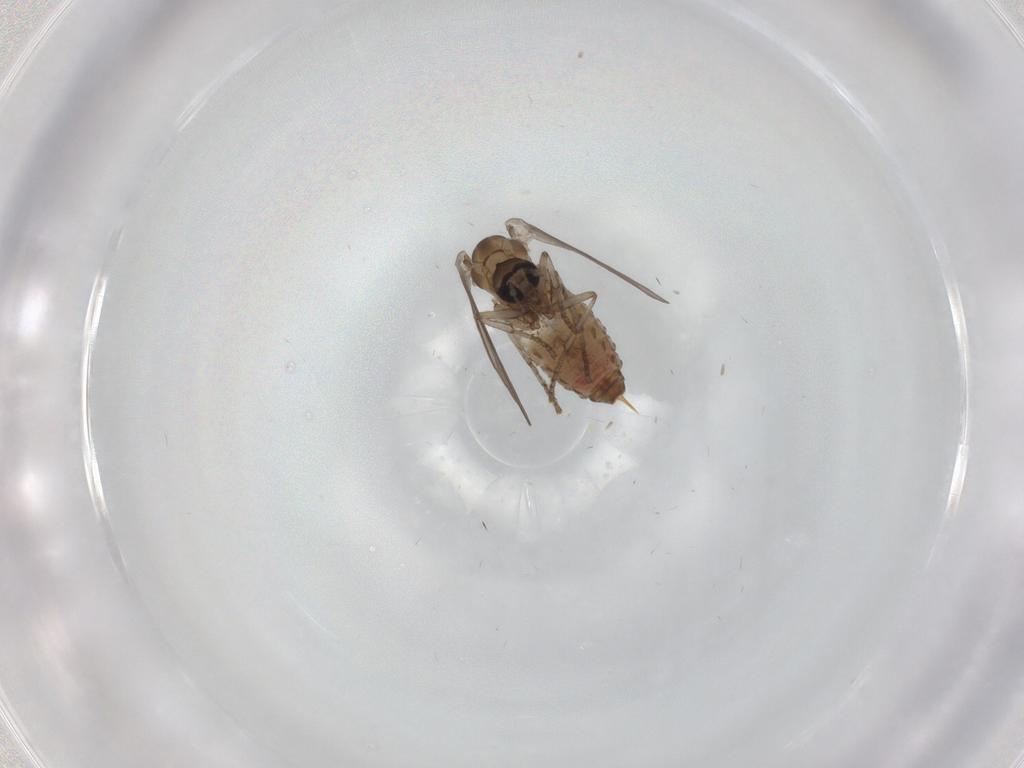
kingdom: Animalia
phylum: Arthropoda
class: Insecta
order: Diptera
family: Psychodidae
